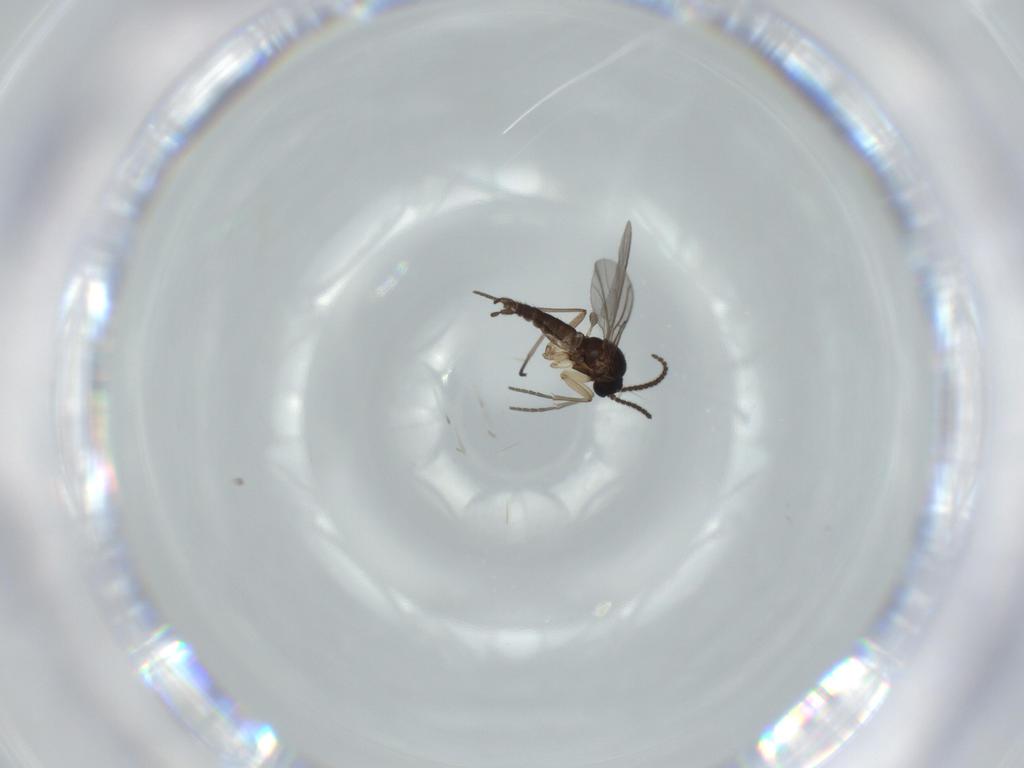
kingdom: Animalia
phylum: Arthropoda
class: Insecta
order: Diptera
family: Sciaridae
